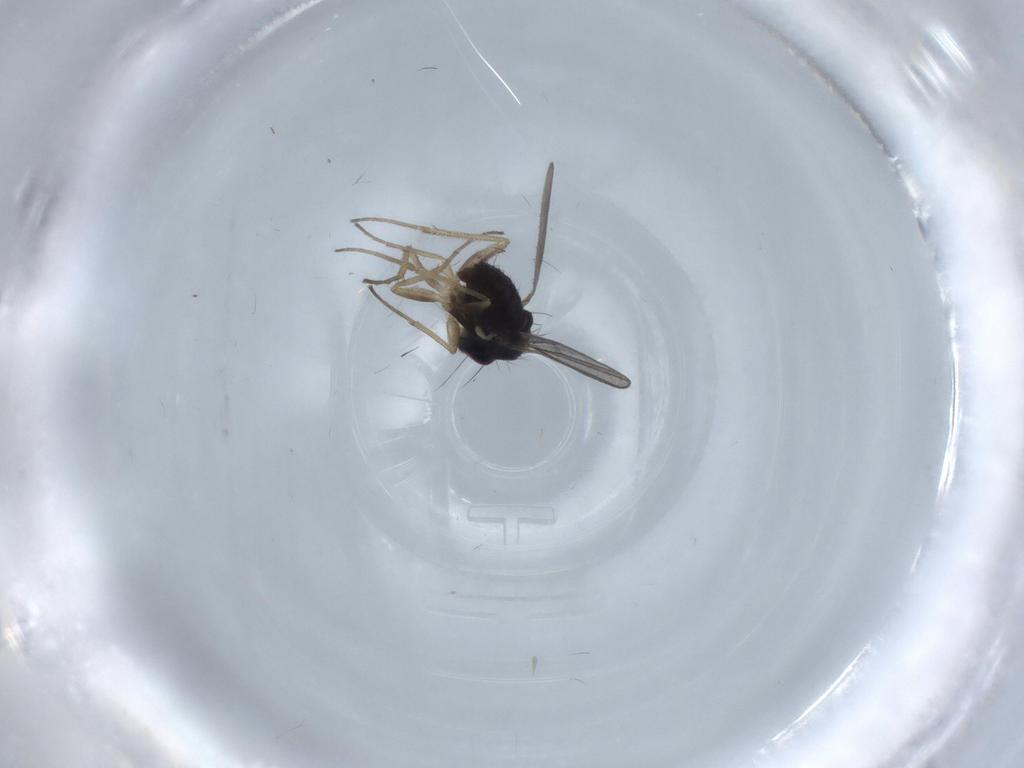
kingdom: Animalia
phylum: Arthropoda
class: Insecta
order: Diptera
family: Dolichopodidae
